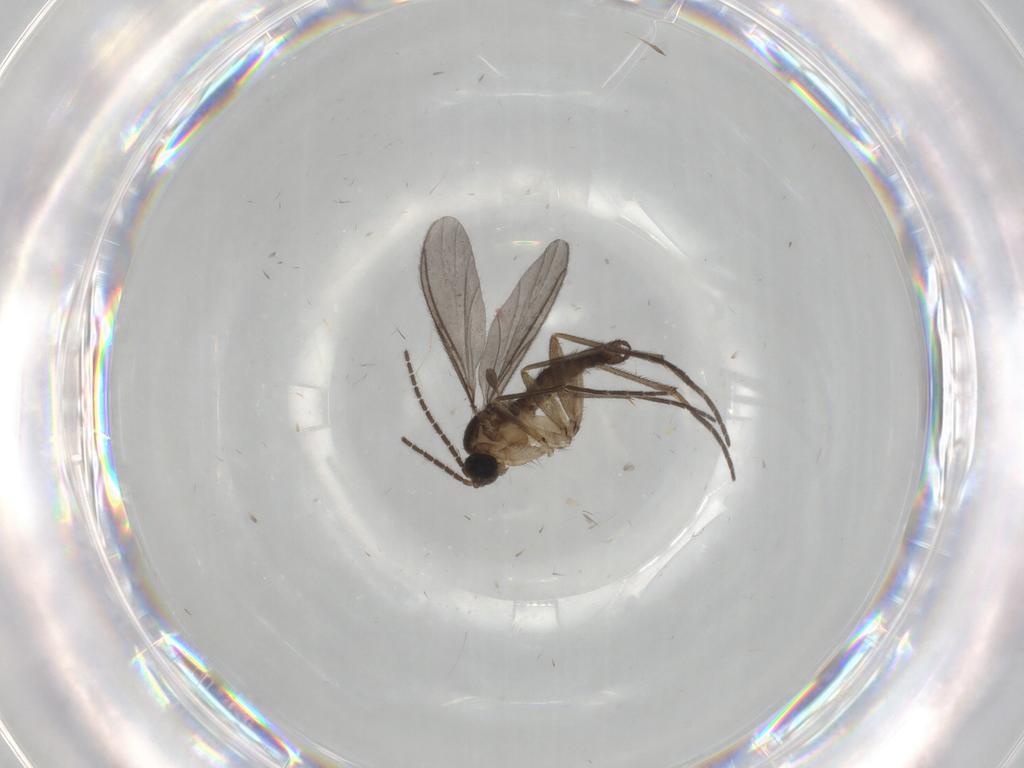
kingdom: Animalia
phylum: Arthropoda
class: Insecta
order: Diptera
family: Sciaridae
